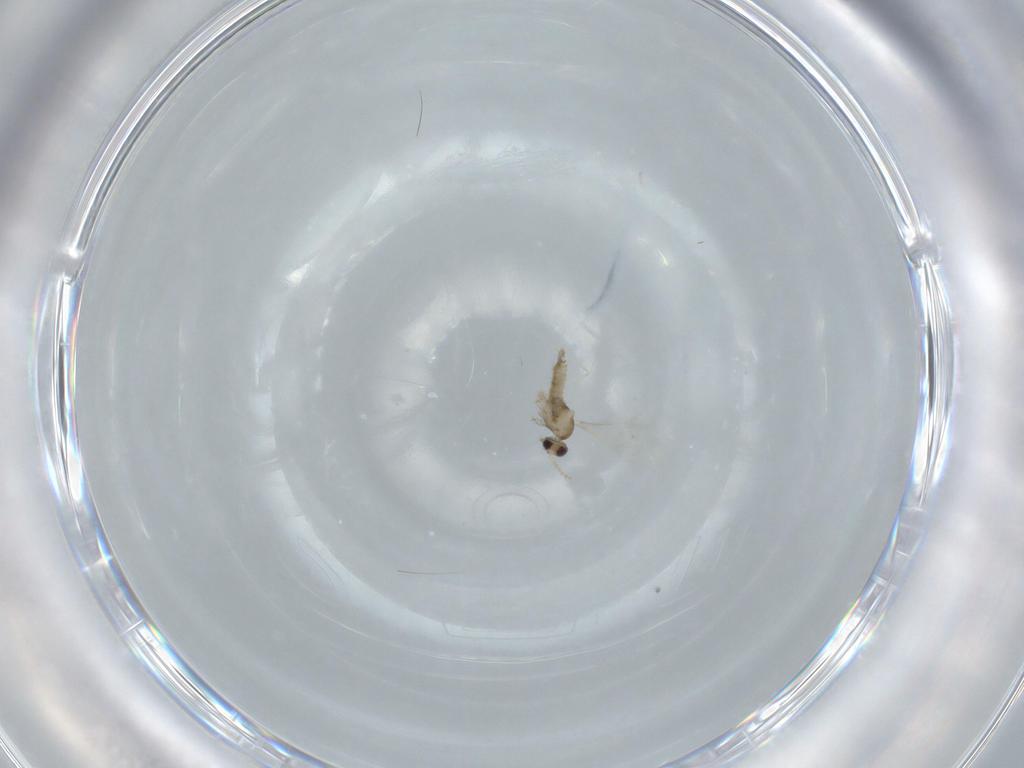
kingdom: Animalia
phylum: Arthropoda
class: Insecta
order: Diptera
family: Cecidomyiidae
